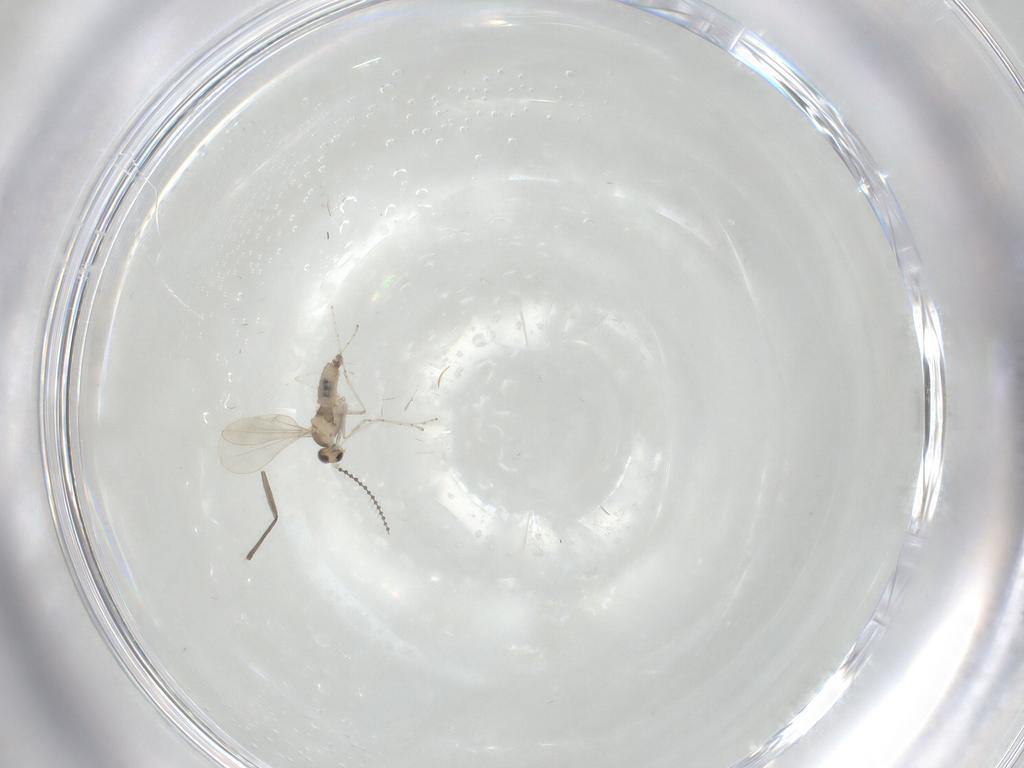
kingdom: Animalia
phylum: Arthropoda
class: Insecta
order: Diptera
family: Cecidomyiidae
